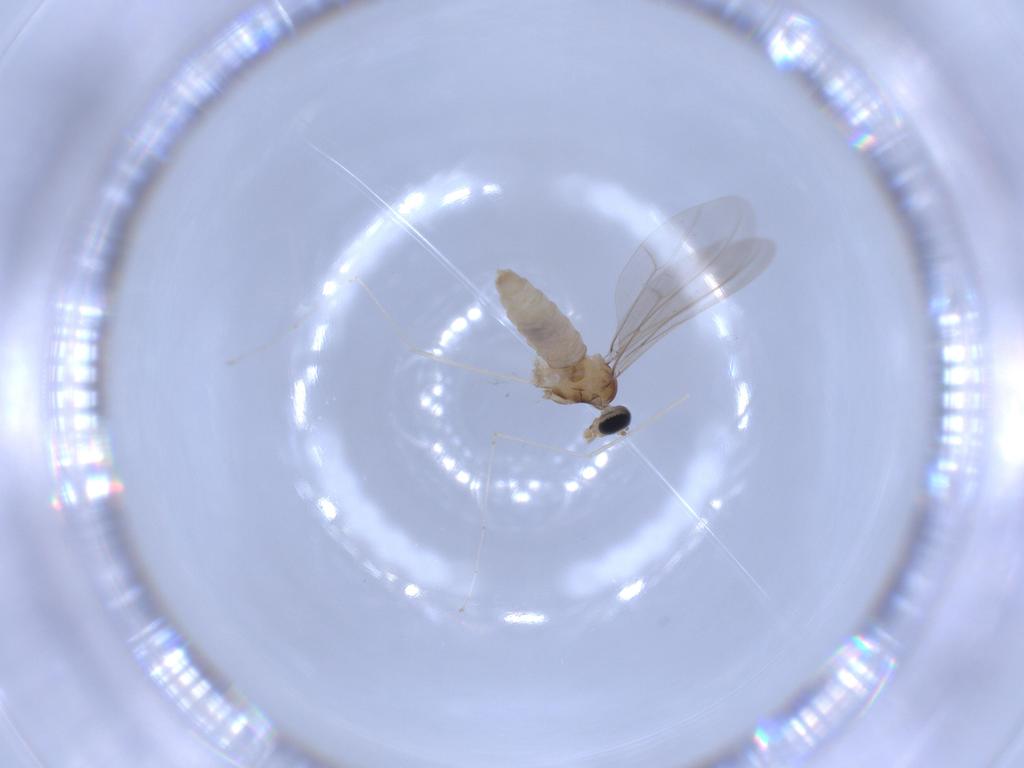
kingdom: Animalia
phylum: Arthropoda
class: Insecta
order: Diptera
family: Cecidomyiidae
